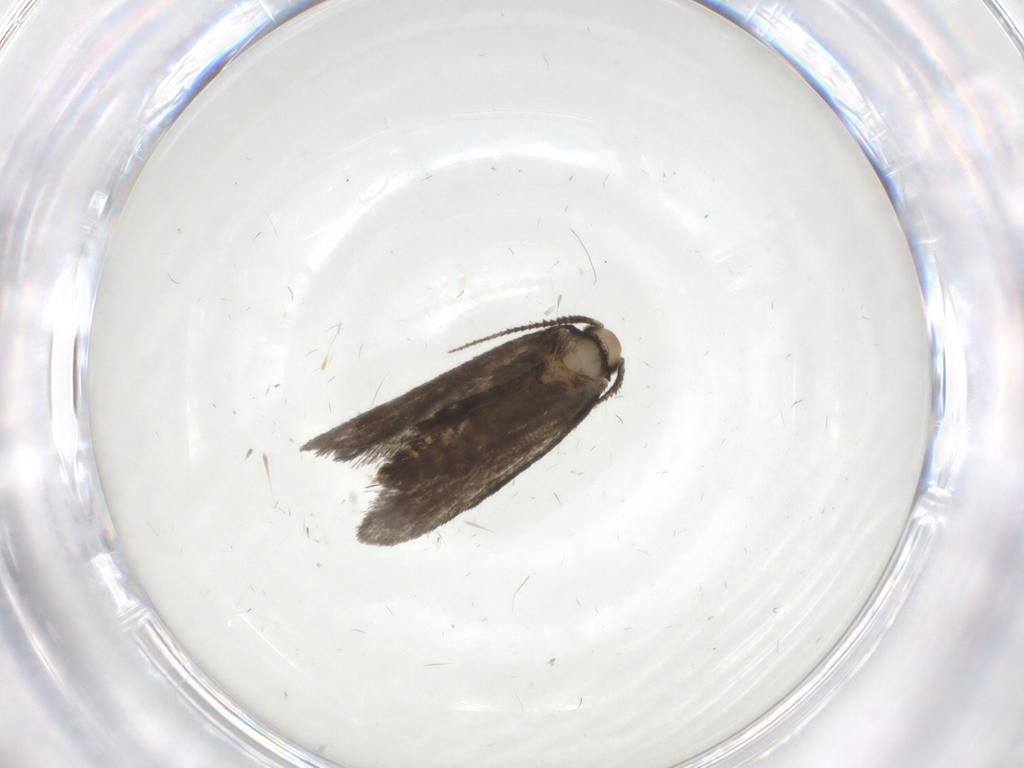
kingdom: Animalia
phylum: Arthropoda
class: Insecta
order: Lepidoptera
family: Psychidae
